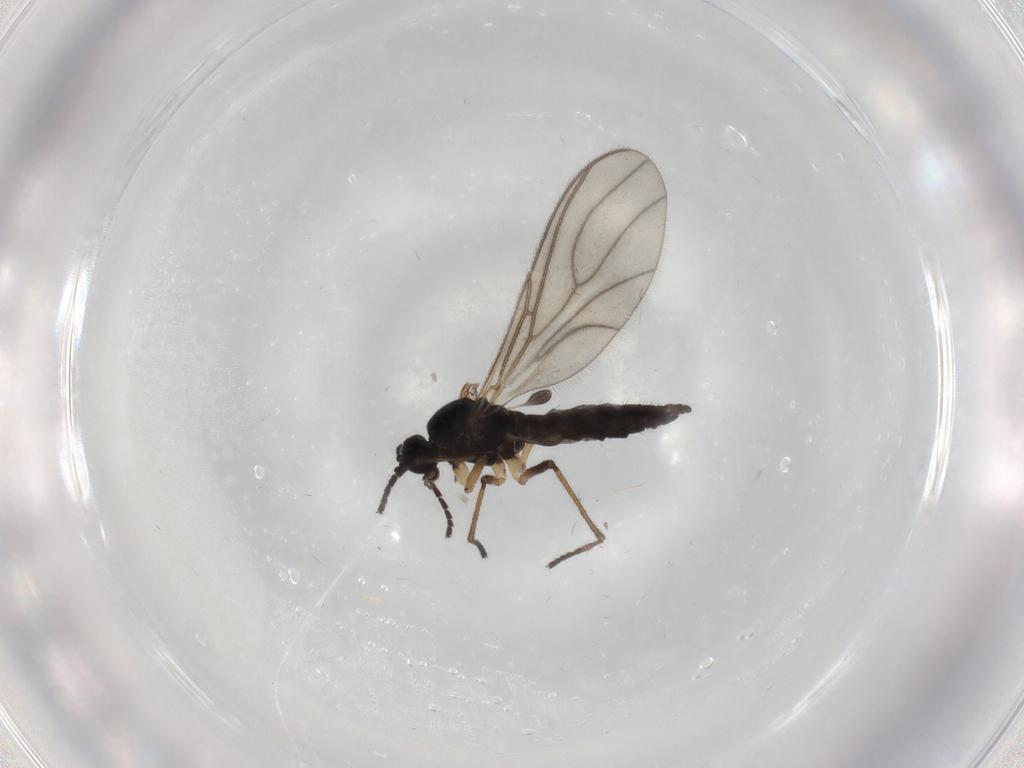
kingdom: Animalia
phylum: Arthropoda
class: Insecta
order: Diptera
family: Sciaridae
